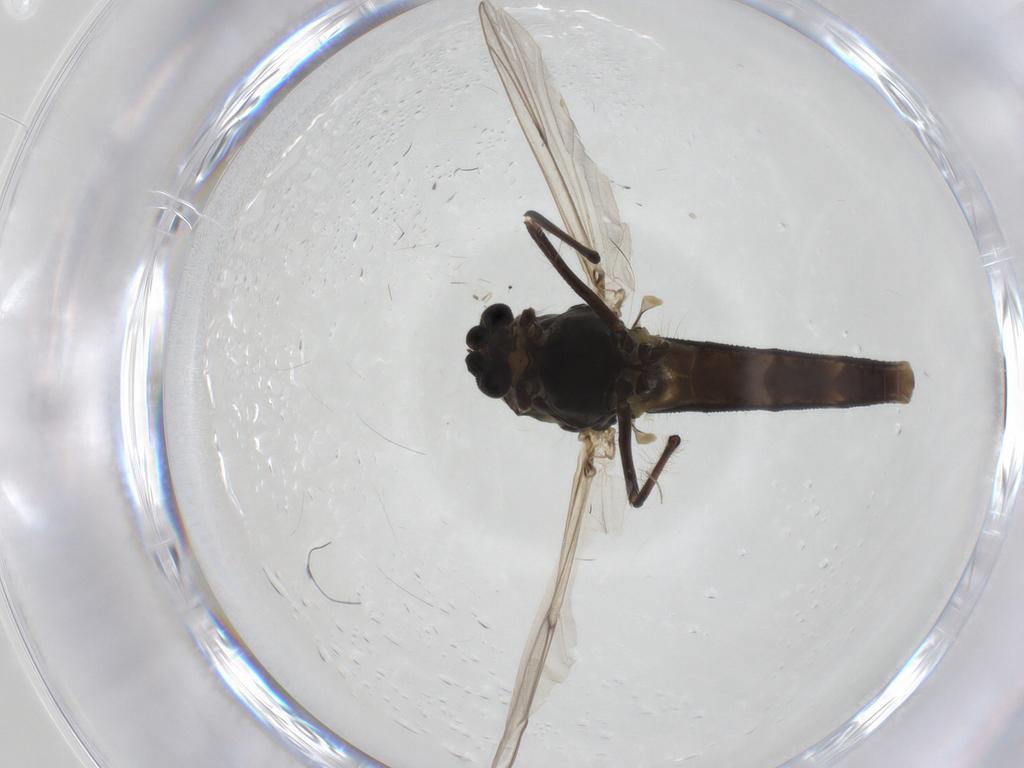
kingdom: Animalia
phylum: Arthropoda
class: Insecta
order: Diptera
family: Chironomidae
